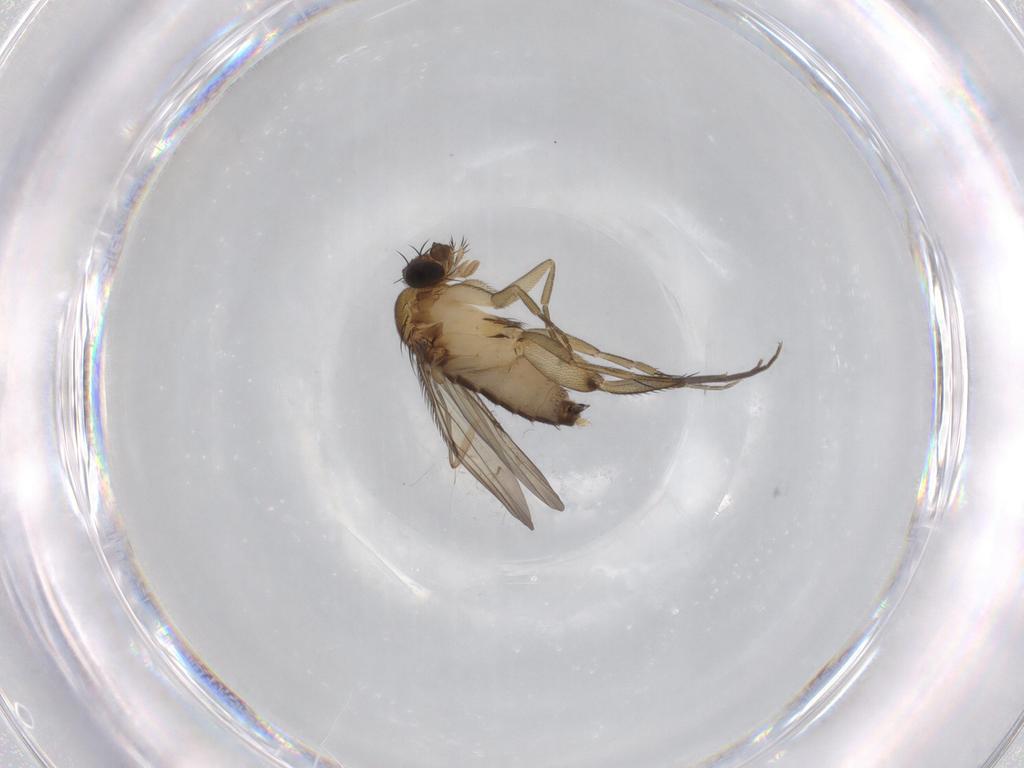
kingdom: Animalia
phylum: Arthropoda
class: Insecta
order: Diptera
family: Phoridae
